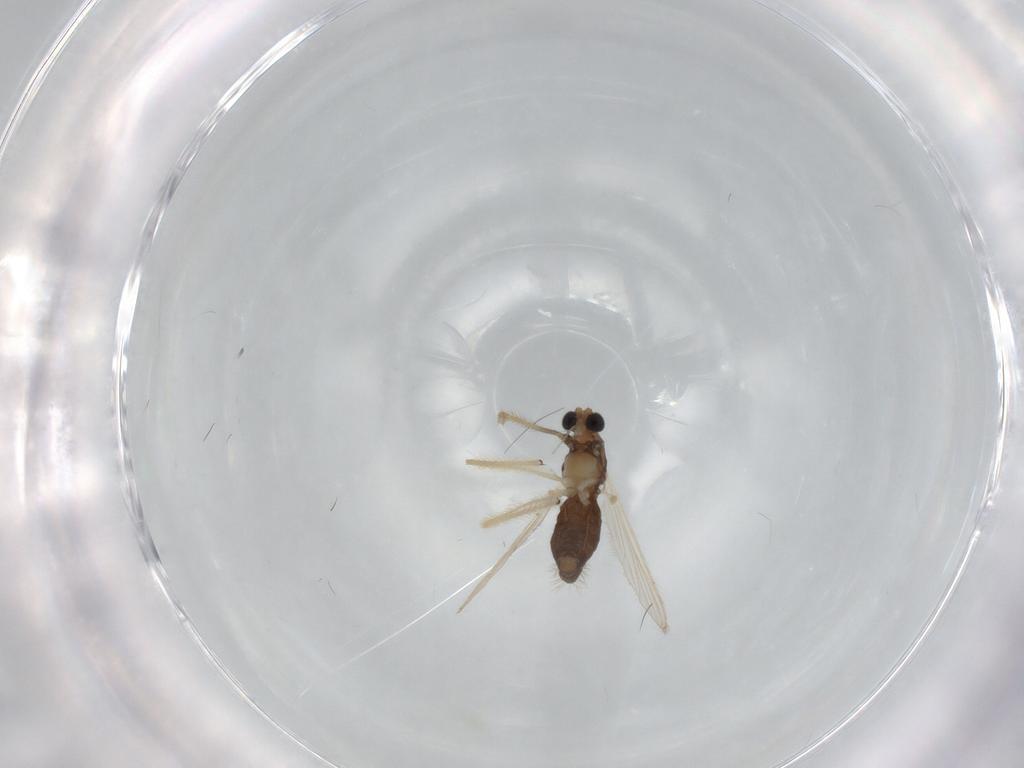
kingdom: Animalia
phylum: Arthropoda
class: Insecta
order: Diptera
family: Chironomidae
